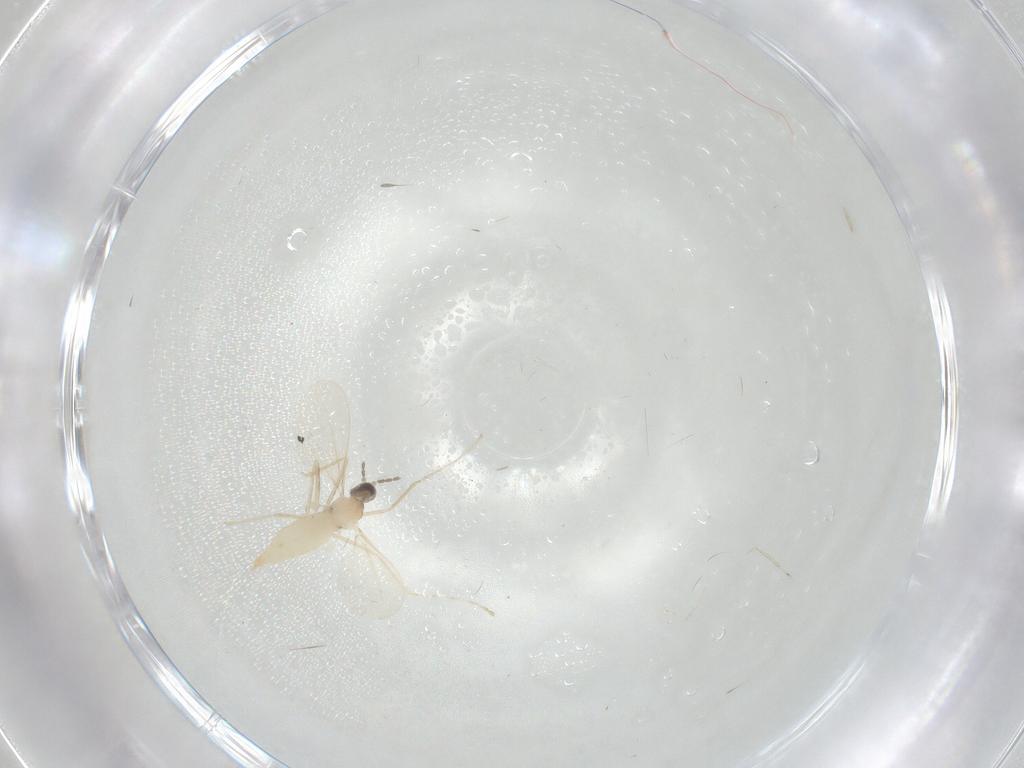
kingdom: Animalia
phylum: Arthropoda
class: Insecta
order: Diptera
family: Cecidomyiidae
